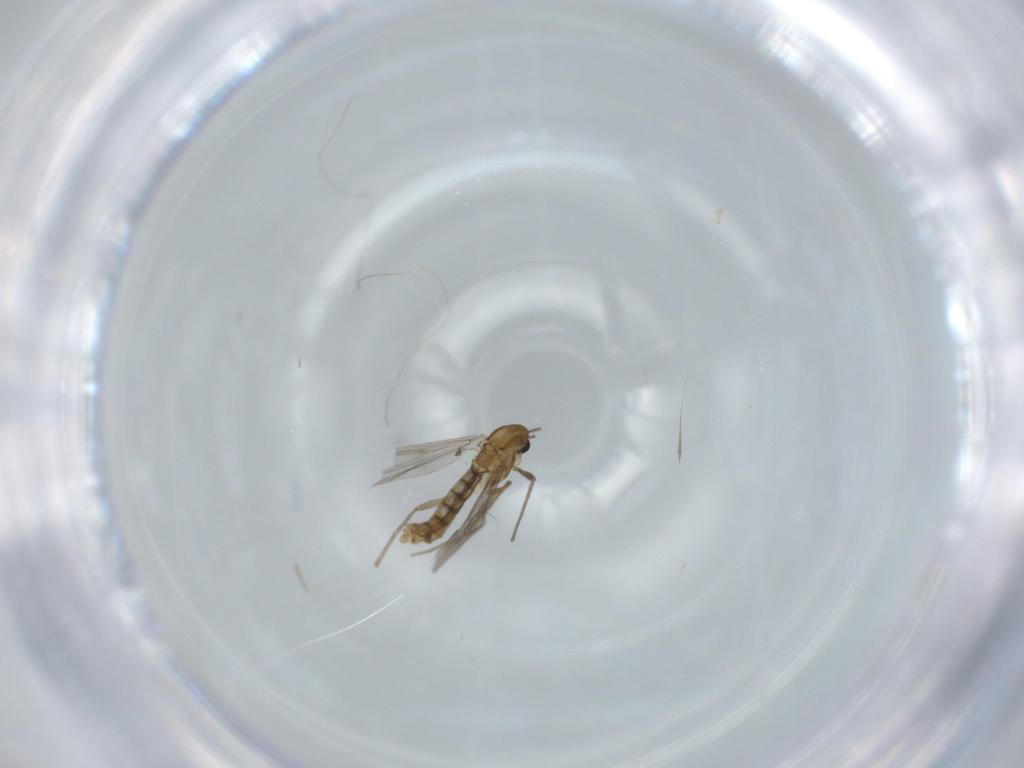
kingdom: Animalia
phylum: Arthropoda
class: Insecta
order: Diptera
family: Chironomidae
